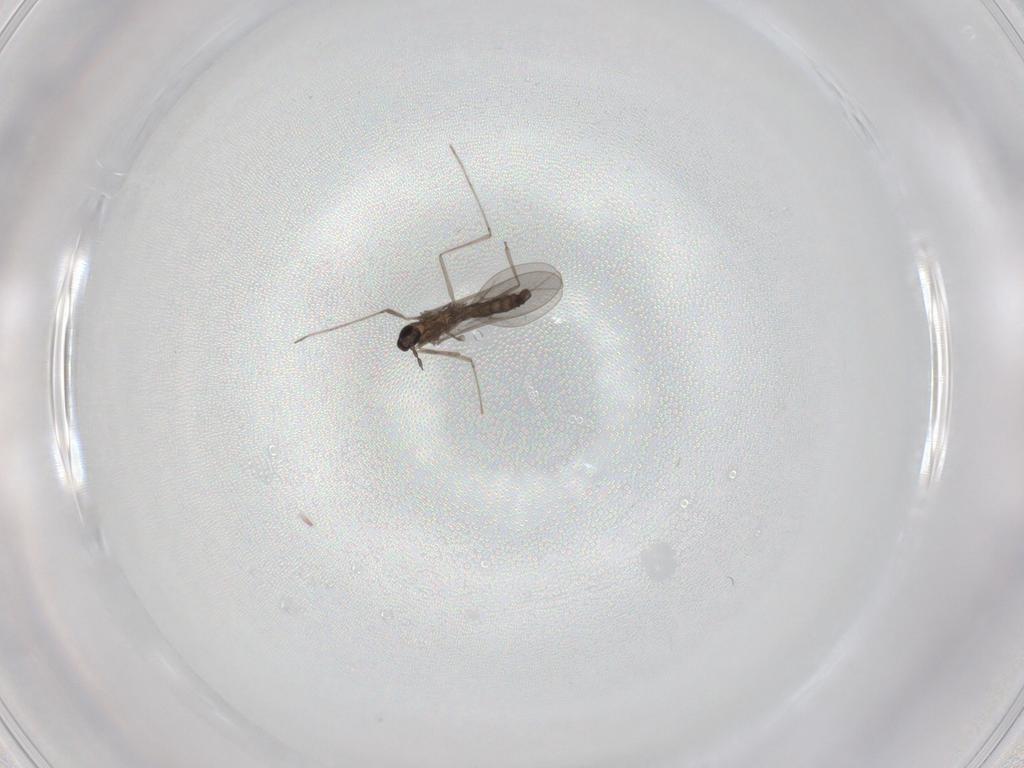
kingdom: Animalia
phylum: Arthropoda
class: Insecta
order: Diptera
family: Cecidomyiidae
